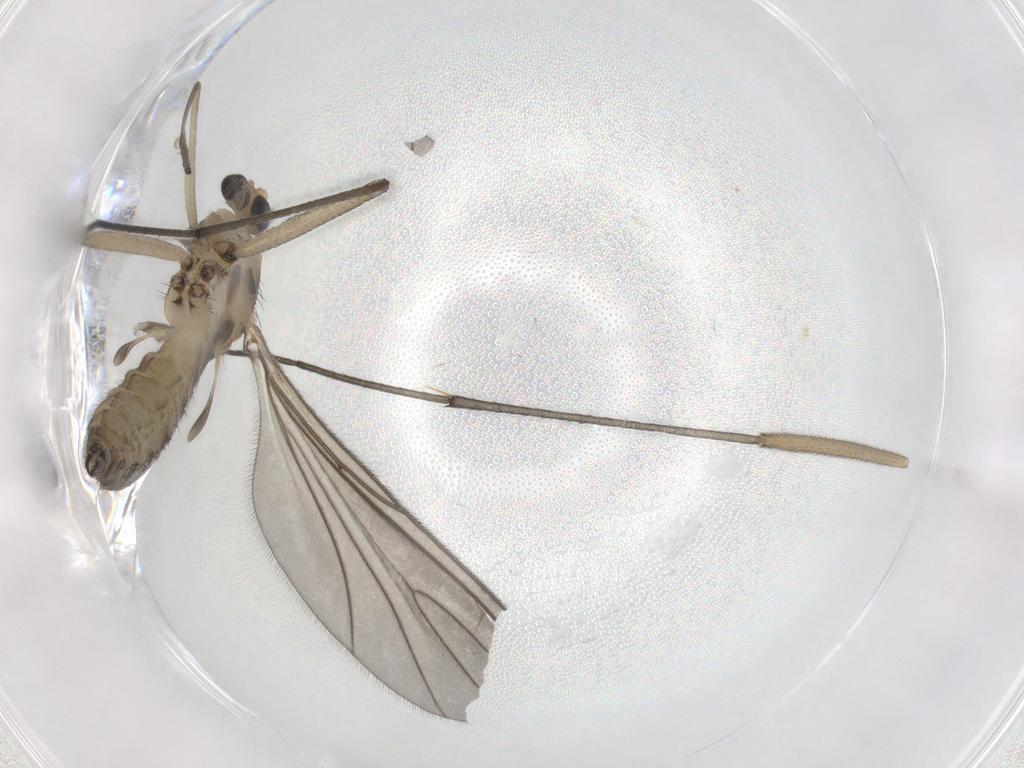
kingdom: Animalia
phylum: Arthropoda
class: Insecta
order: Diptera
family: Sciaridae
